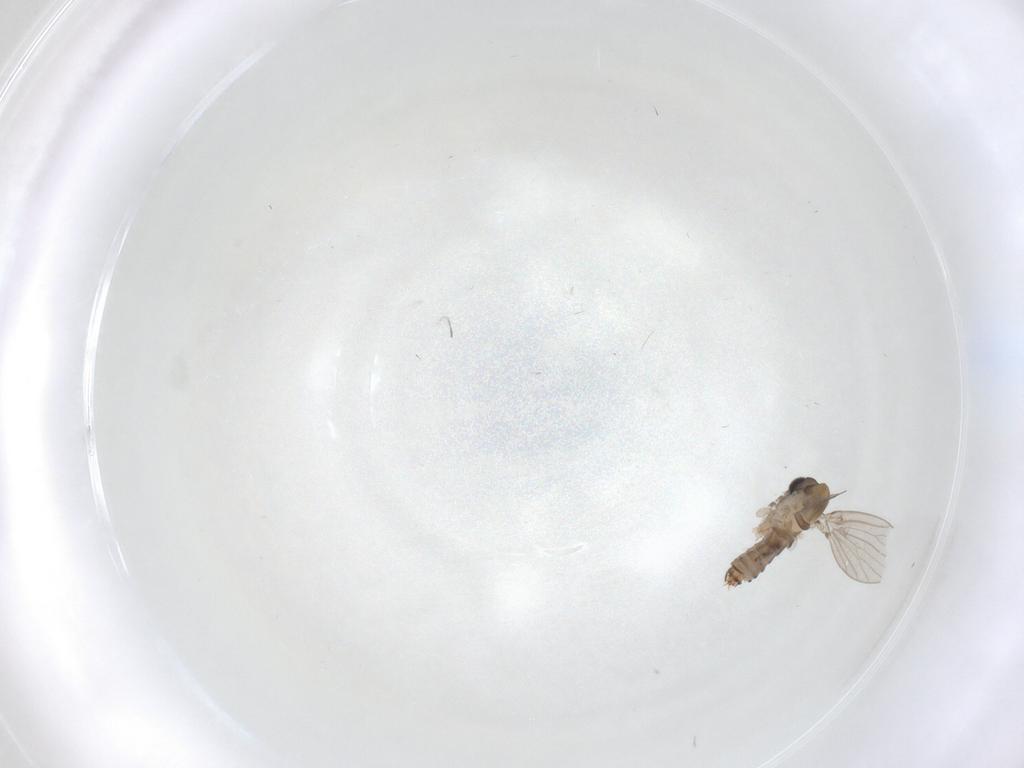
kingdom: Animalia
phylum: Arthropoda
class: Insecta
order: Diptera
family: Psychodidae
